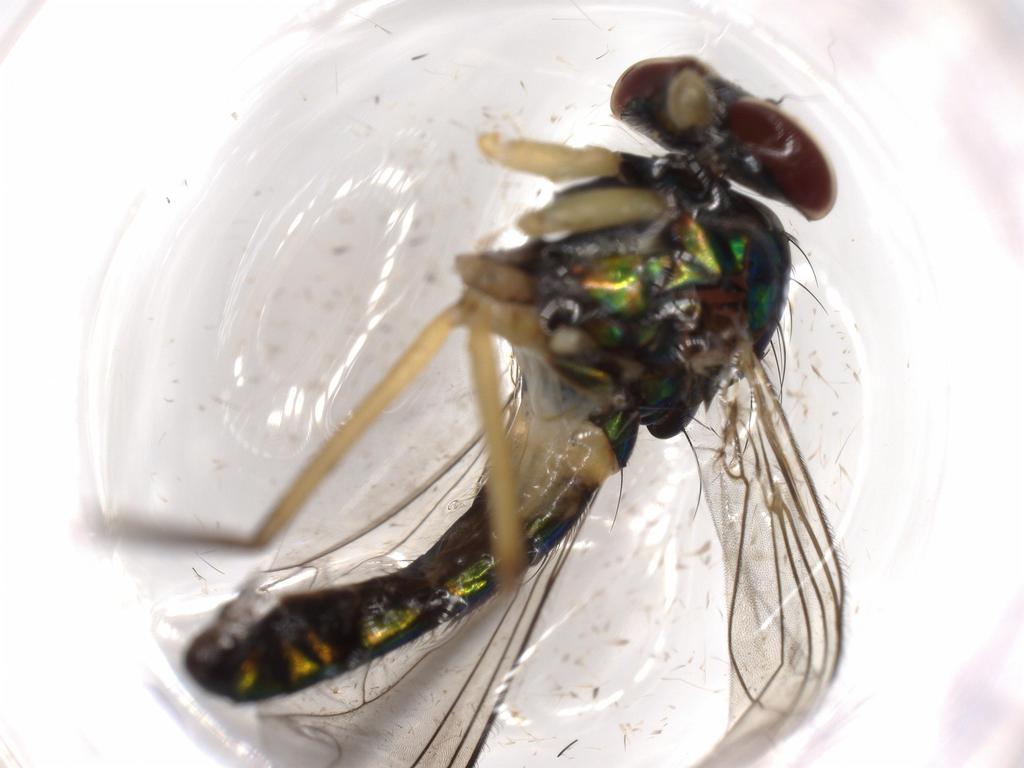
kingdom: Animalia
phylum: Arthropoda
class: Insecta
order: Diptera
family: Dolichopodidae
